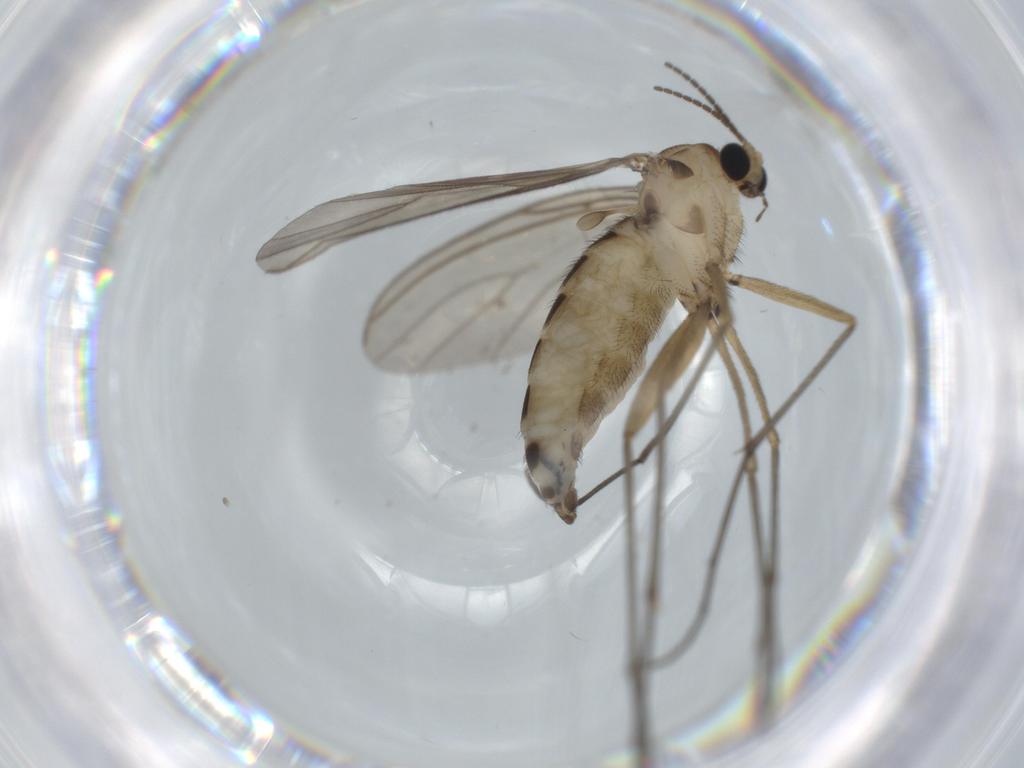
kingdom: Animalia
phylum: Arthropoda
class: Insecta
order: Diptera
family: Sciaridae
